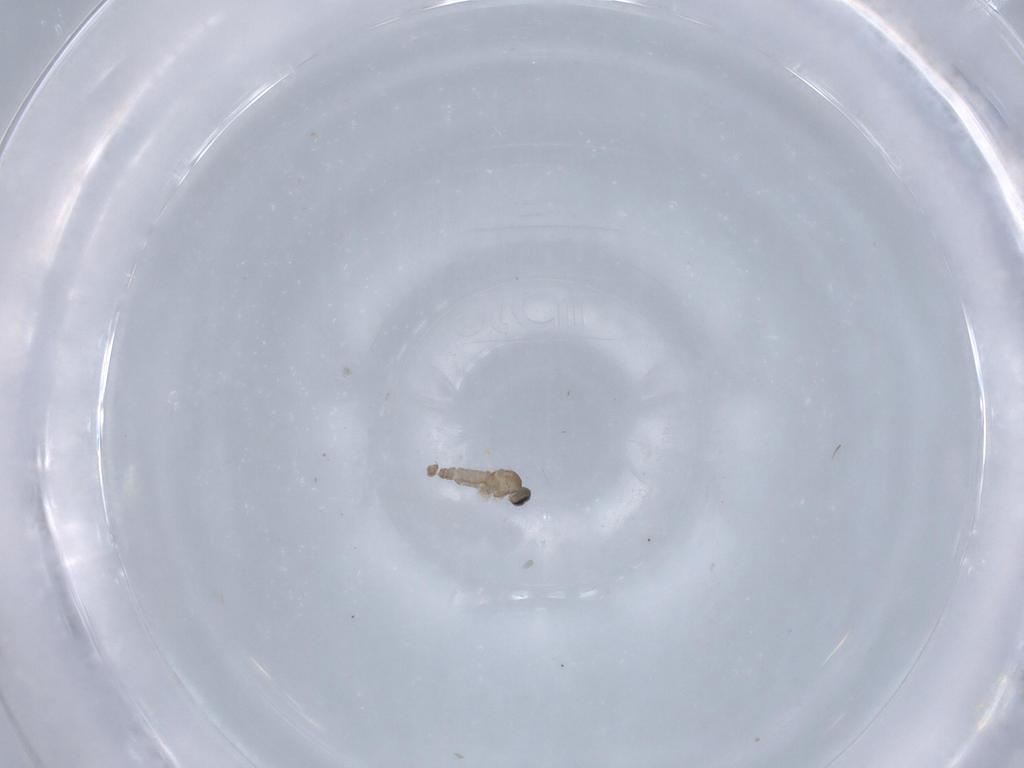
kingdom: Animalia
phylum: Arthropoda
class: Insecta
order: Diptera
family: Cecidomyiidae
